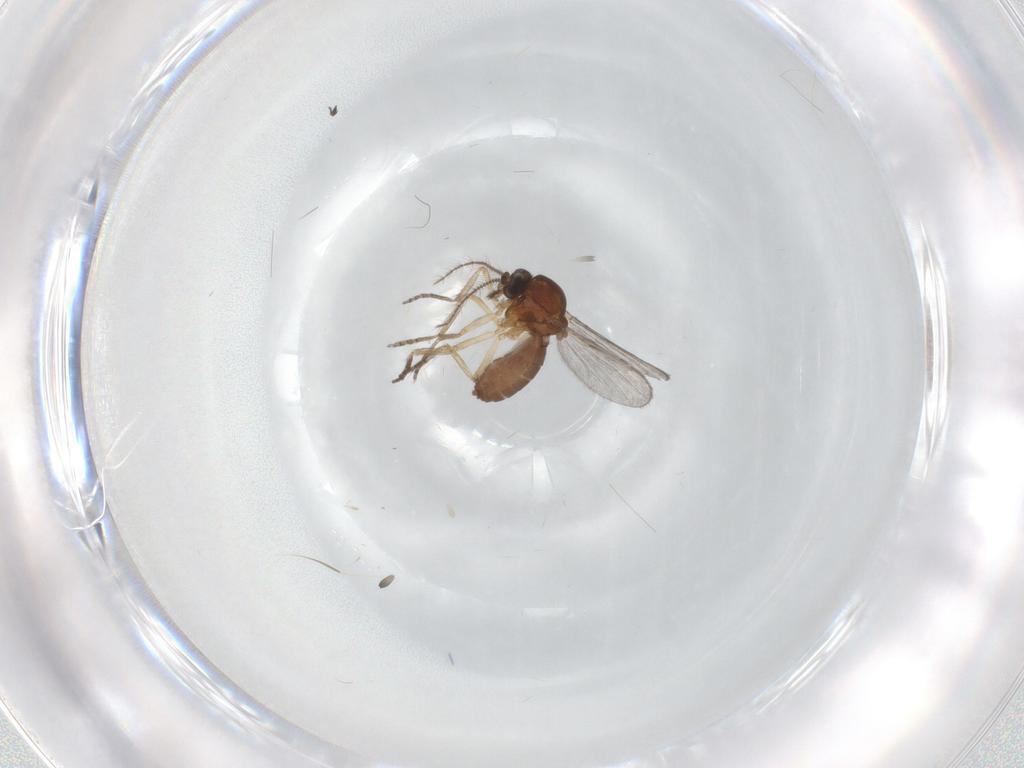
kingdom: Animalia
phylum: Arthropoda
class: Insecta
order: Diptera
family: Ceratopogonidae
